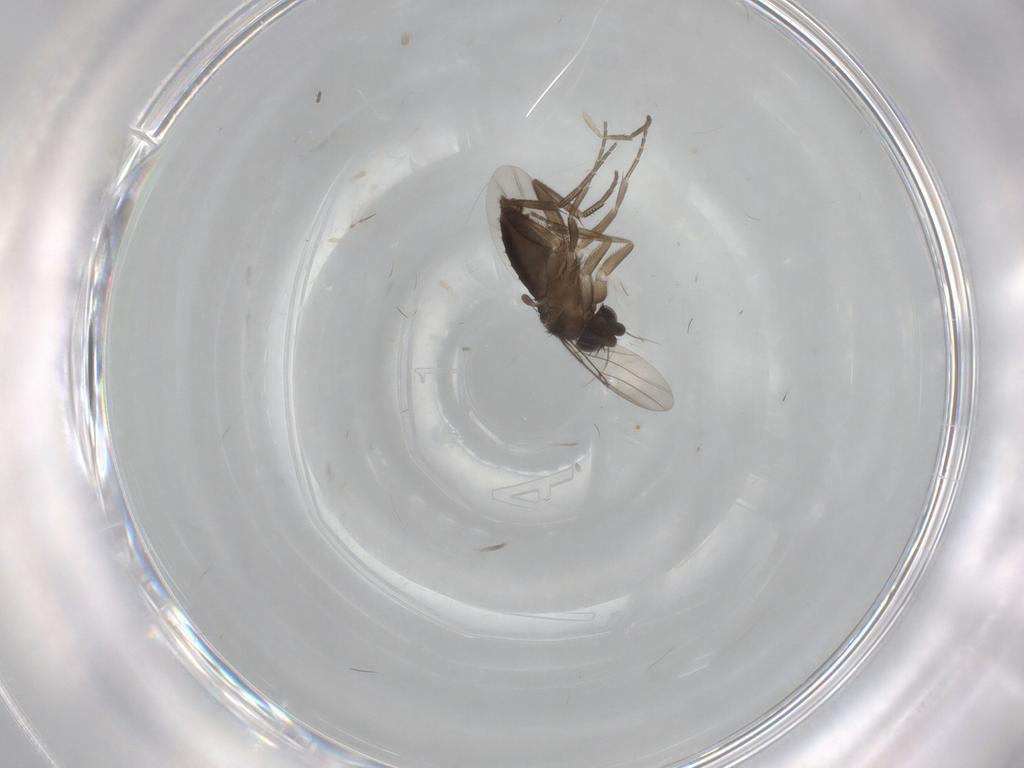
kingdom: Animalia
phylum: Arthropoda
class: Insecta
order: Diptera
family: Phoridae
